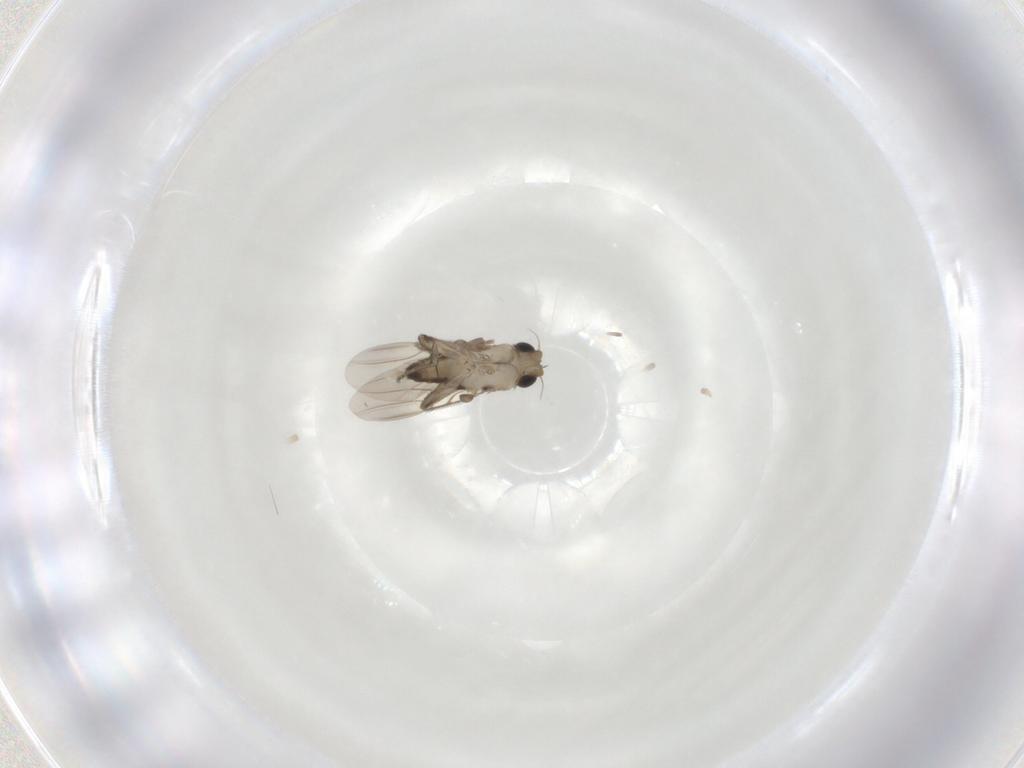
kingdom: Animalia
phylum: Arthropoda
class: Insecta
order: Diptera
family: Phoridae
